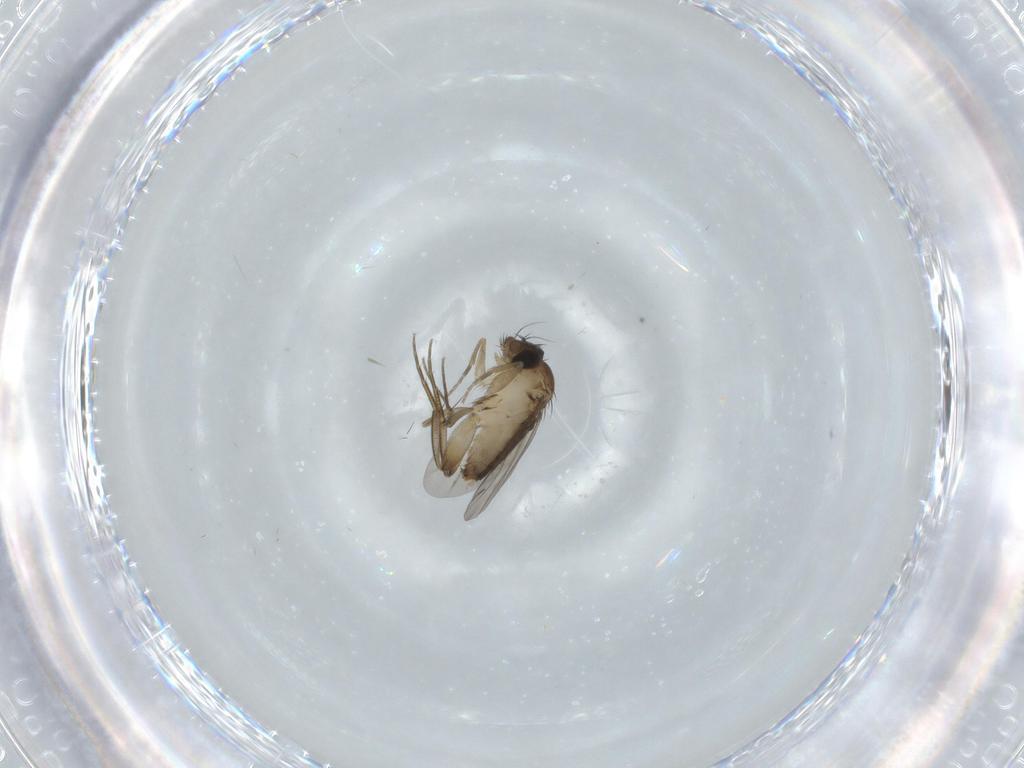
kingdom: Animalia
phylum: Arthropoda
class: Insecta
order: Diptera
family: Phoridae
